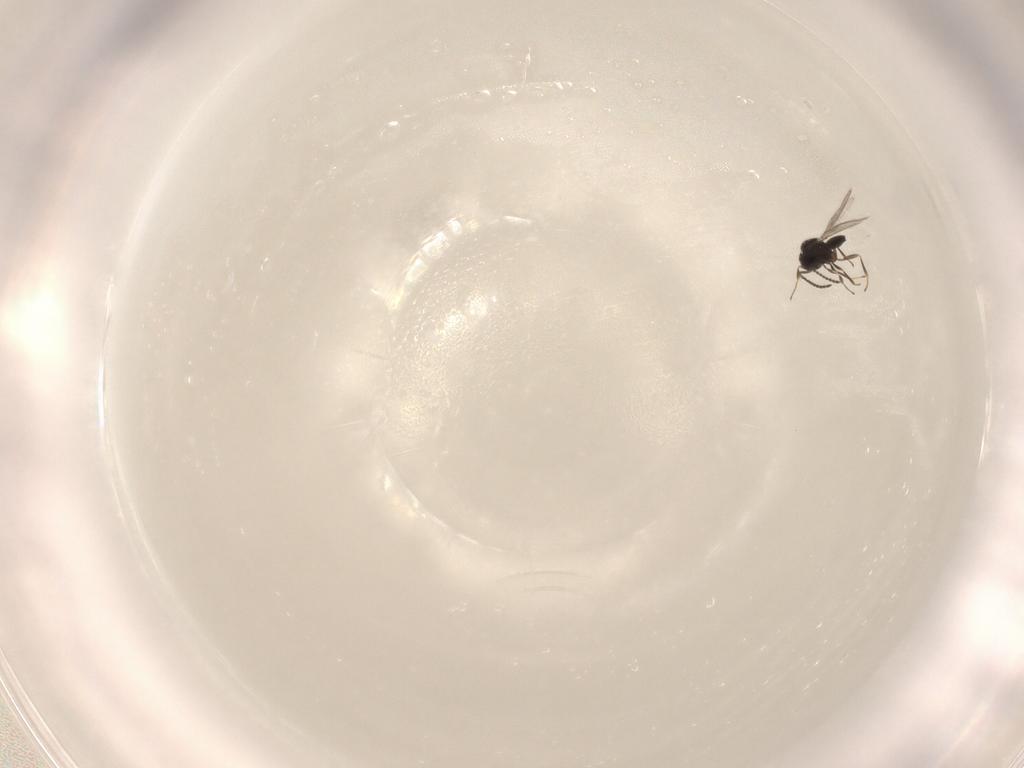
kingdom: Animalia
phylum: Arthropoda
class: Insecta
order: Hymenoptera
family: Scelionidae
